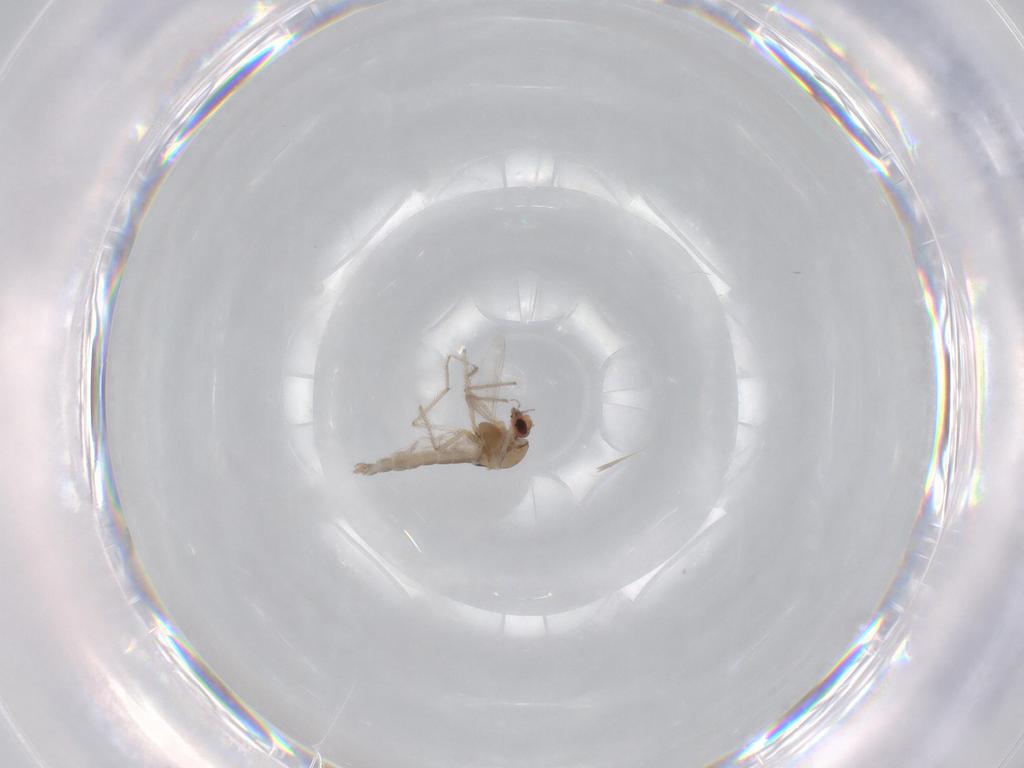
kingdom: Animalia
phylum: Arthropoda
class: Insecta
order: Diptera
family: Chironomidae
